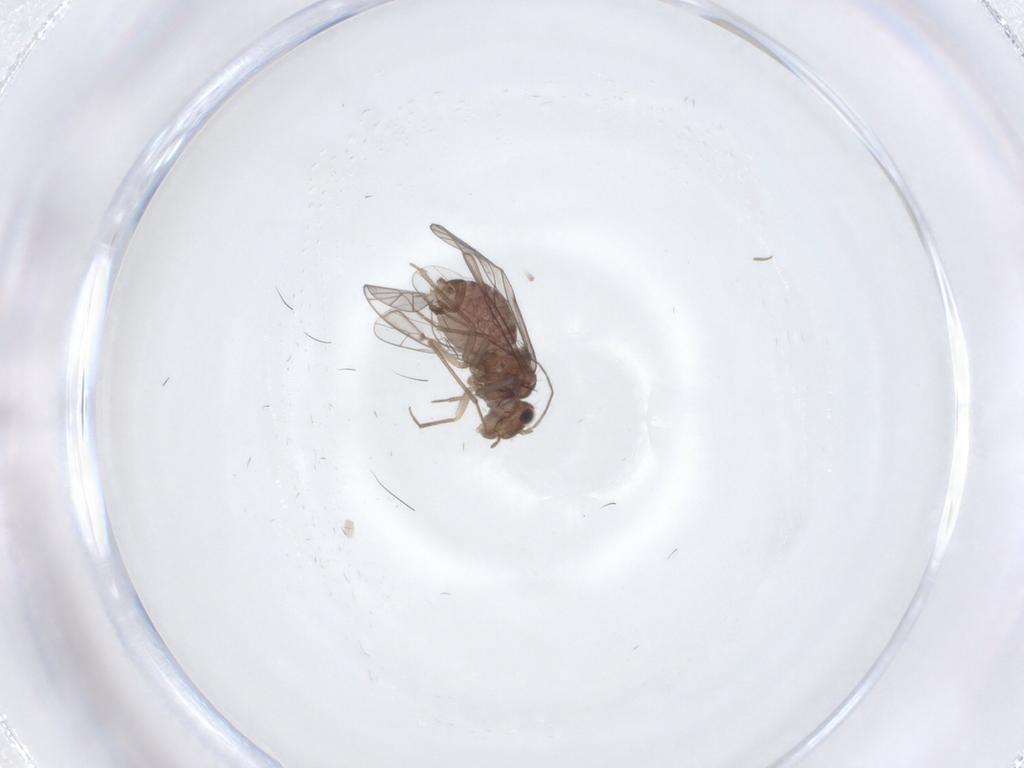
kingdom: Animalia
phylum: Arthropoda
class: Insecta
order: Psocodea
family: Lachesillidae
